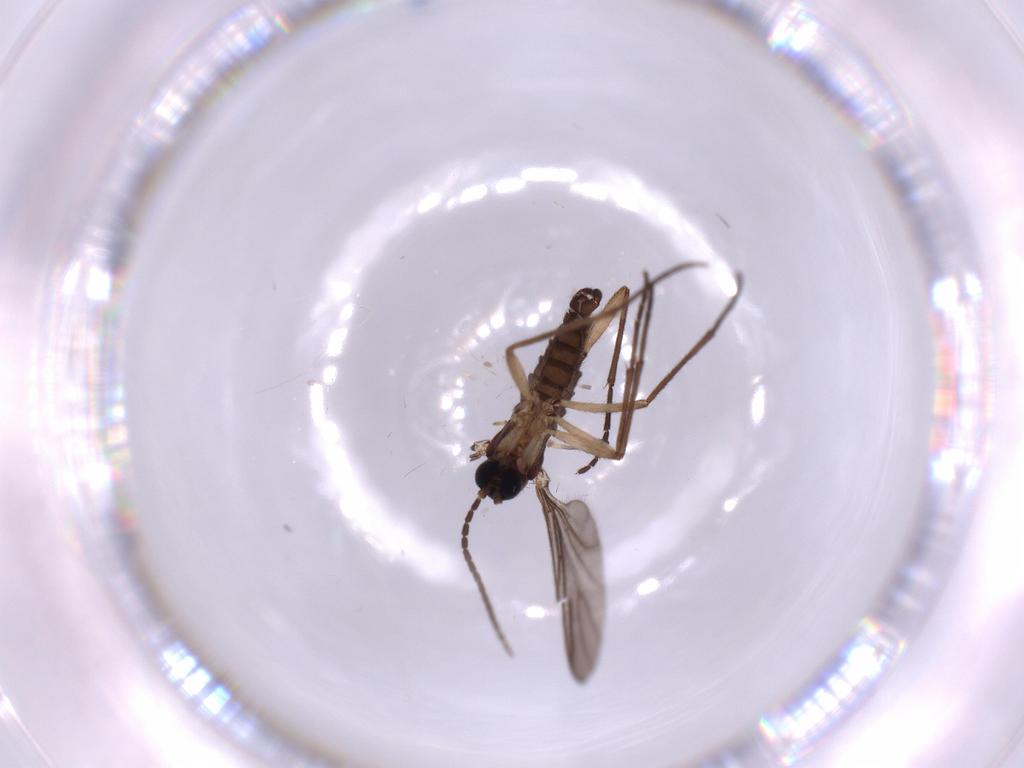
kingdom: Animalia
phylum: Arthropoda
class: Insecta
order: Diptera
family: Sciaridae
